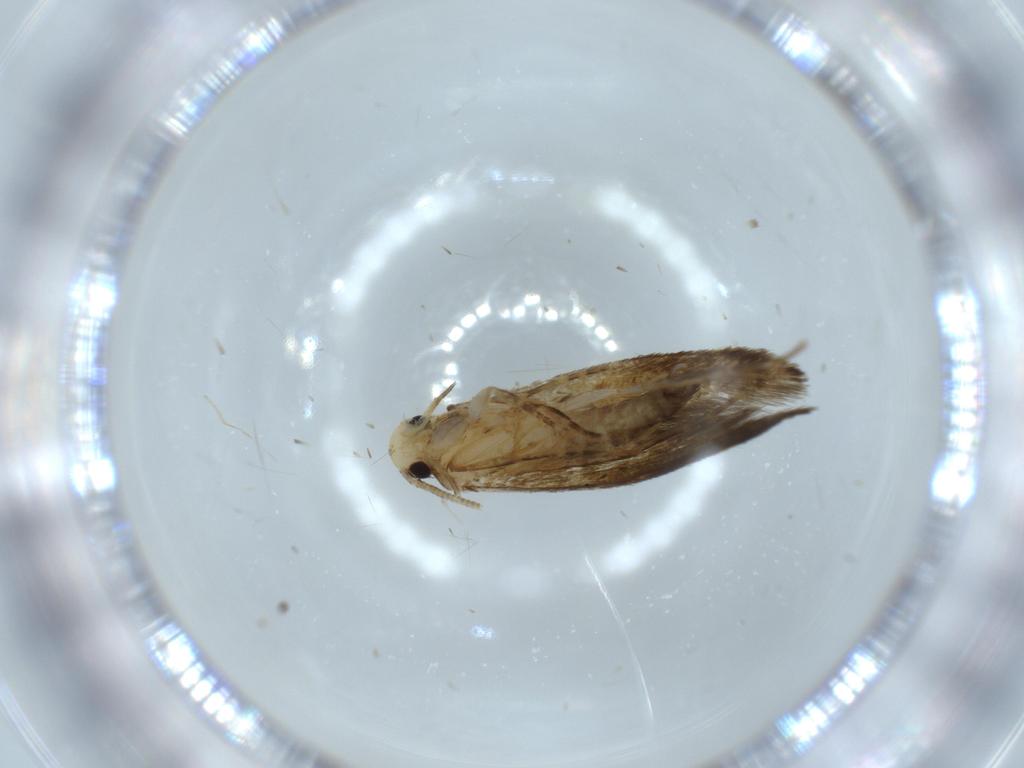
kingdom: Animalia
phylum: Arthropoda
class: Insecta
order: Lepidoptera
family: Tineidae
